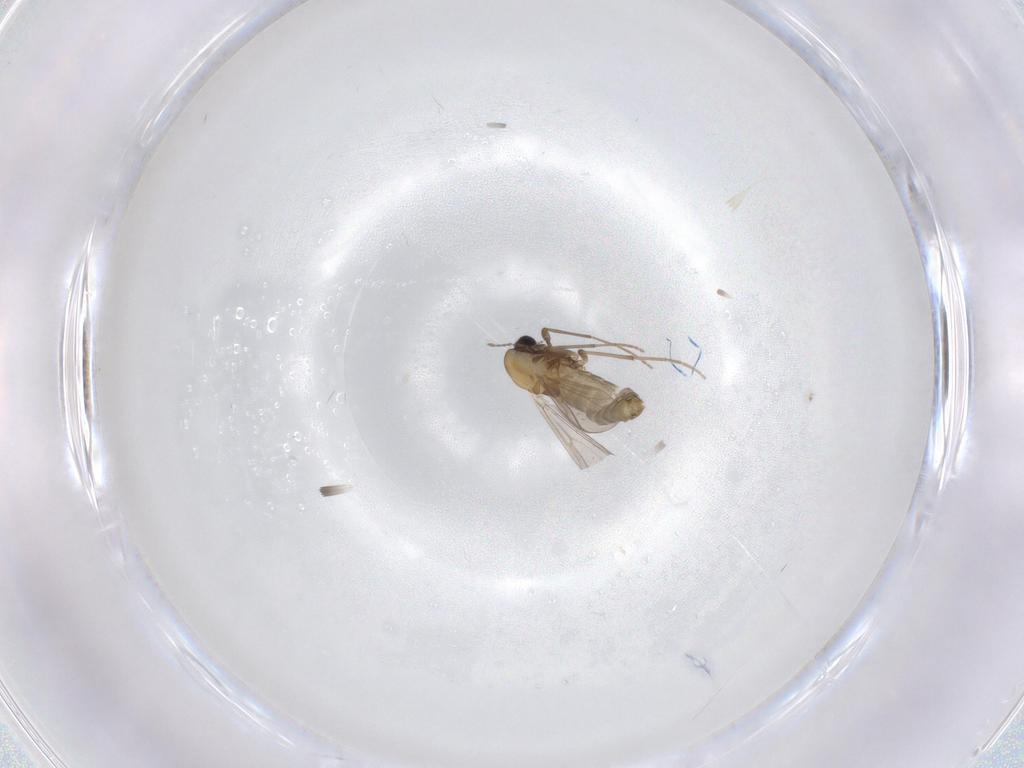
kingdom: Animalia
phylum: Arthropoda
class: Insecta
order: Diptera
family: Chironomidae
